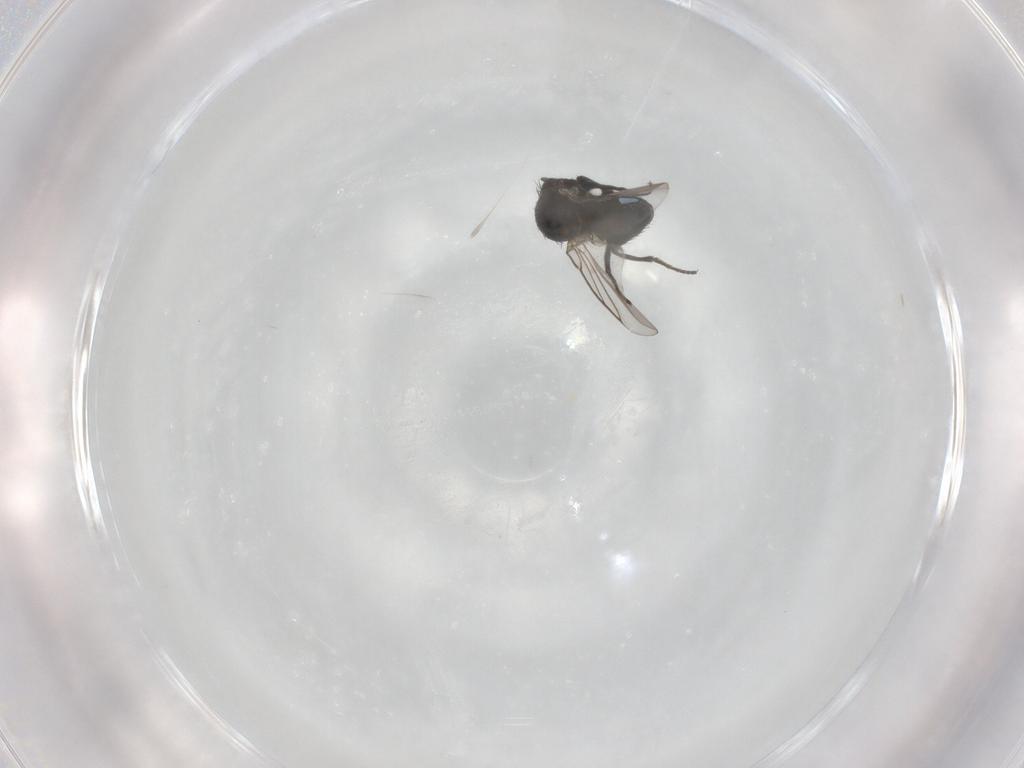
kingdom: Animalia
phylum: Arthropoda
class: Insecta
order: Diptera
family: Agromyzidae
